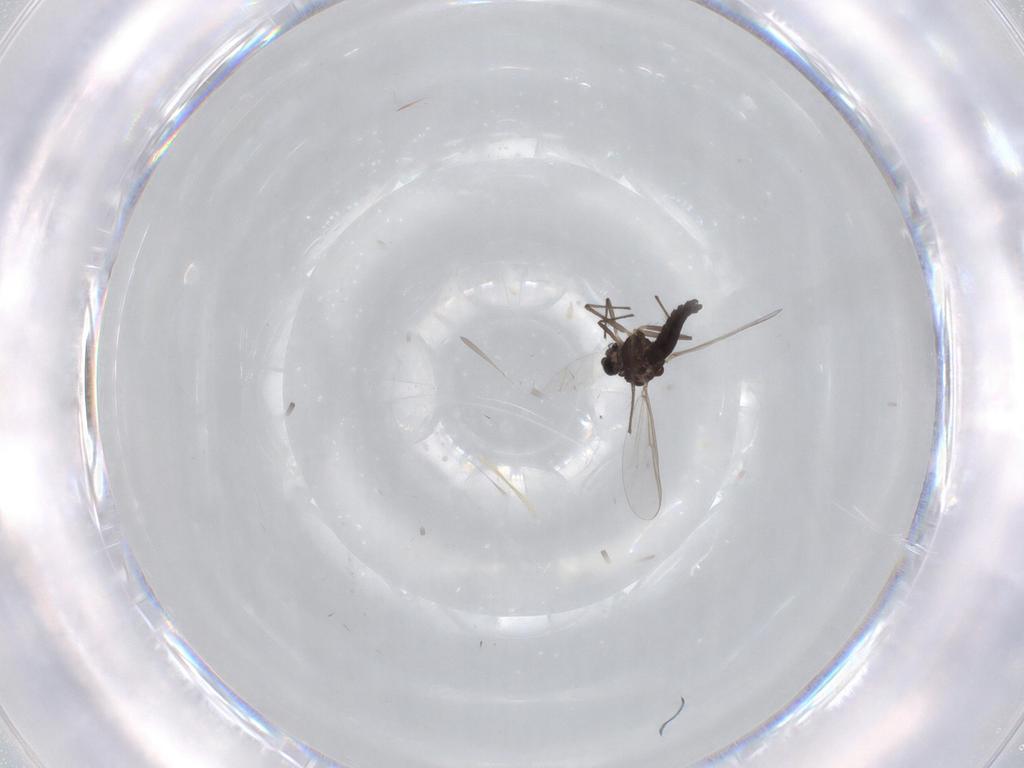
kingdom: Animalia
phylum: Arthropoda
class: Insecta
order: Diptera
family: Chironomidae
